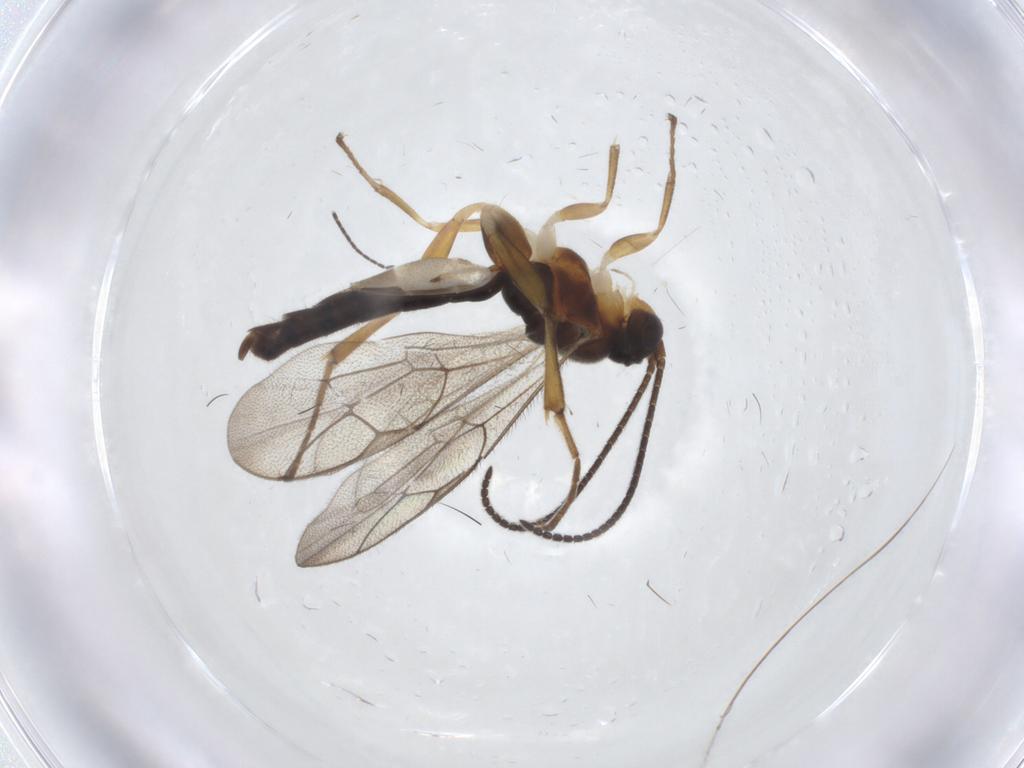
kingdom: Animalia
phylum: Arthropoda
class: Insecta
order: Hymenoptera
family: Ichneumonidae
